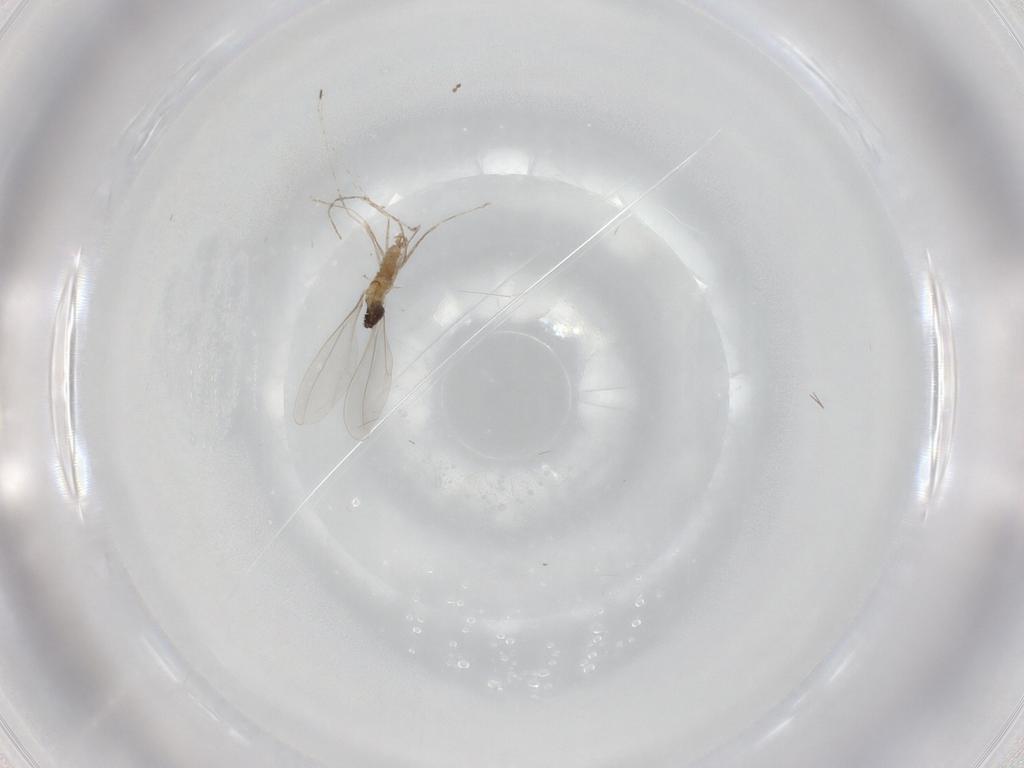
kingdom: Animalia
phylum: Arthropoda
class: Insecta
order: Diptera
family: Cecidomyiidae
